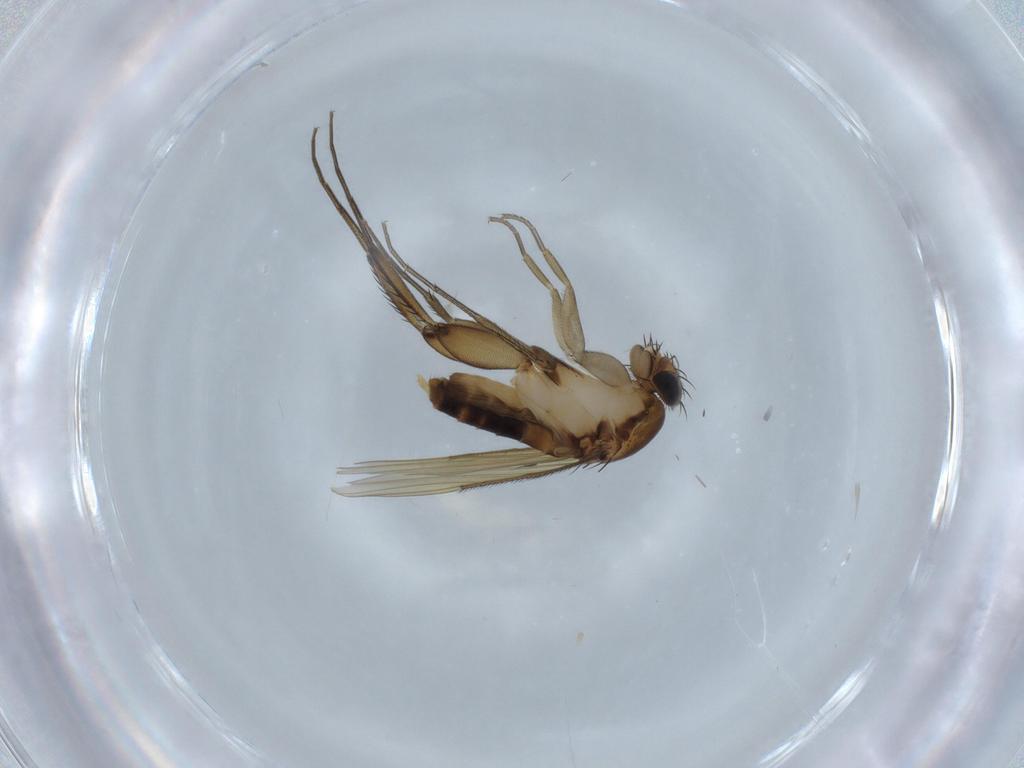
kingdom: Animalia
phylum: Arthropoda
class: Insecta
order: Diptera
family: Phoridae
